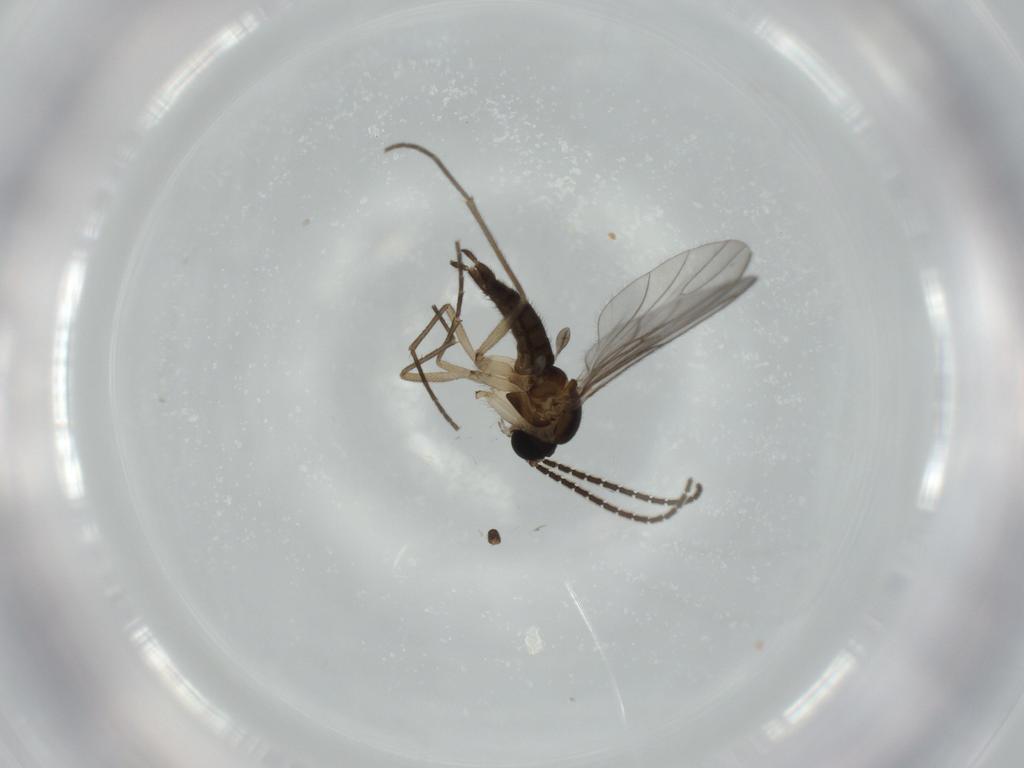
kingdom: Animalia
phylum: Arthropoda
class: Insecta
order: Diptera
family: Sciaridae
